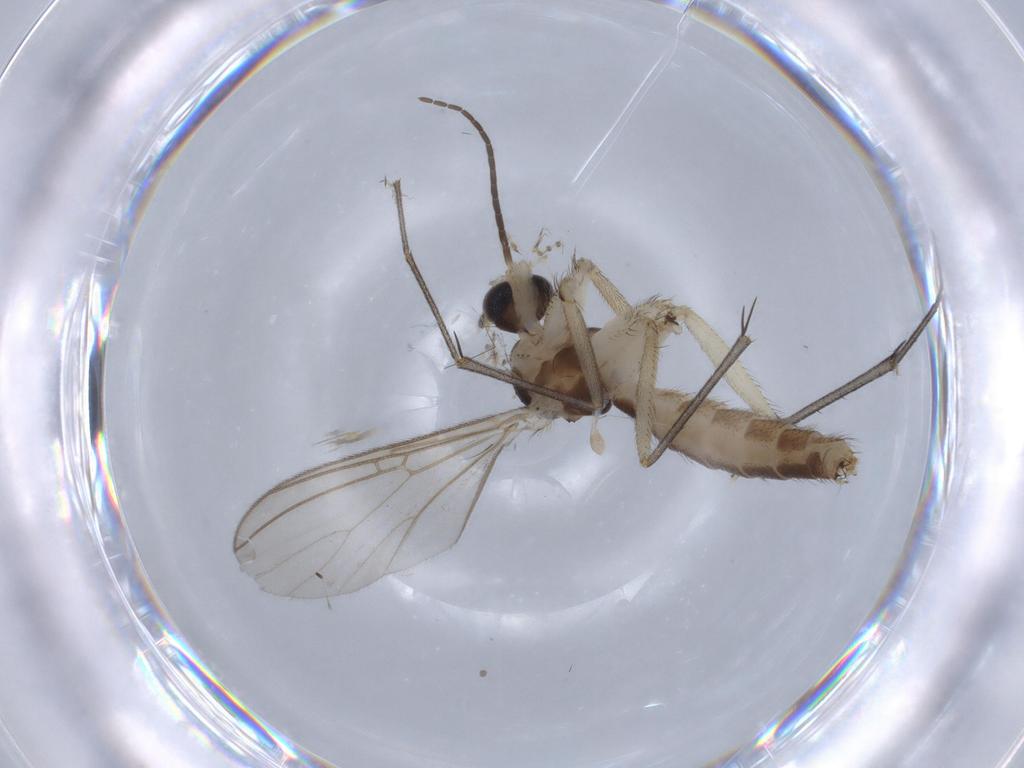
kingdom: Animalia
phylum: Arthropoda
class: Insecta
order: Diptera
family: Mycetophilidae
